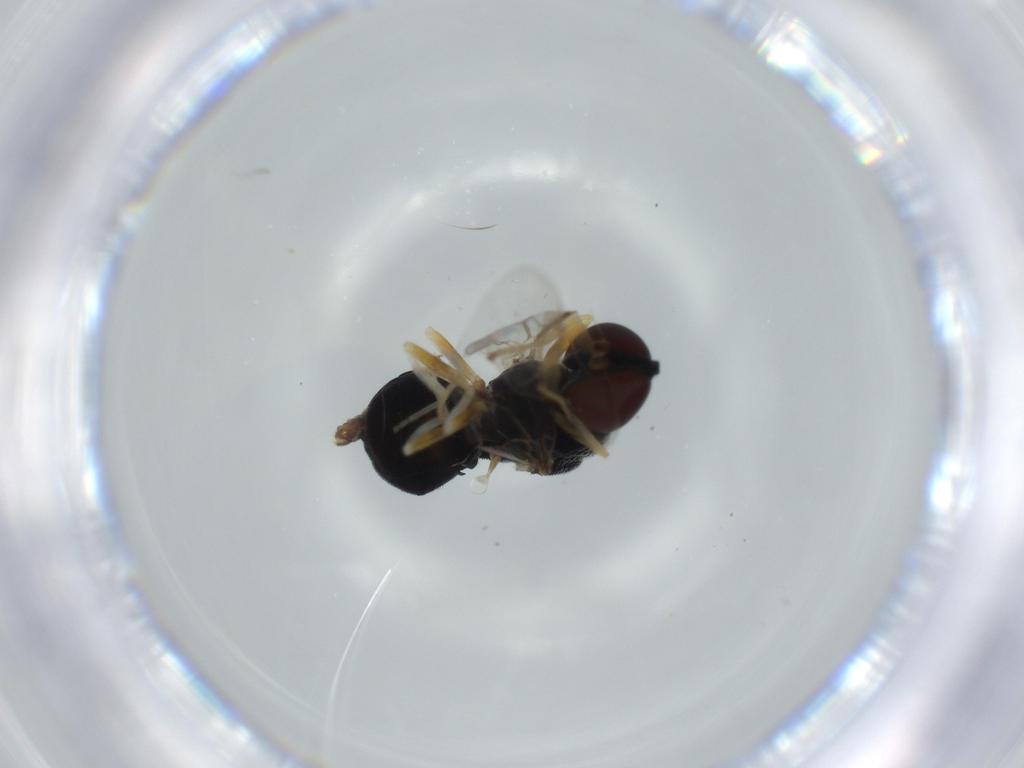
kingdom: Animalia
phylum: Arthropoda
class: Insecta
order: Diptera
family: Stratiomyidae
